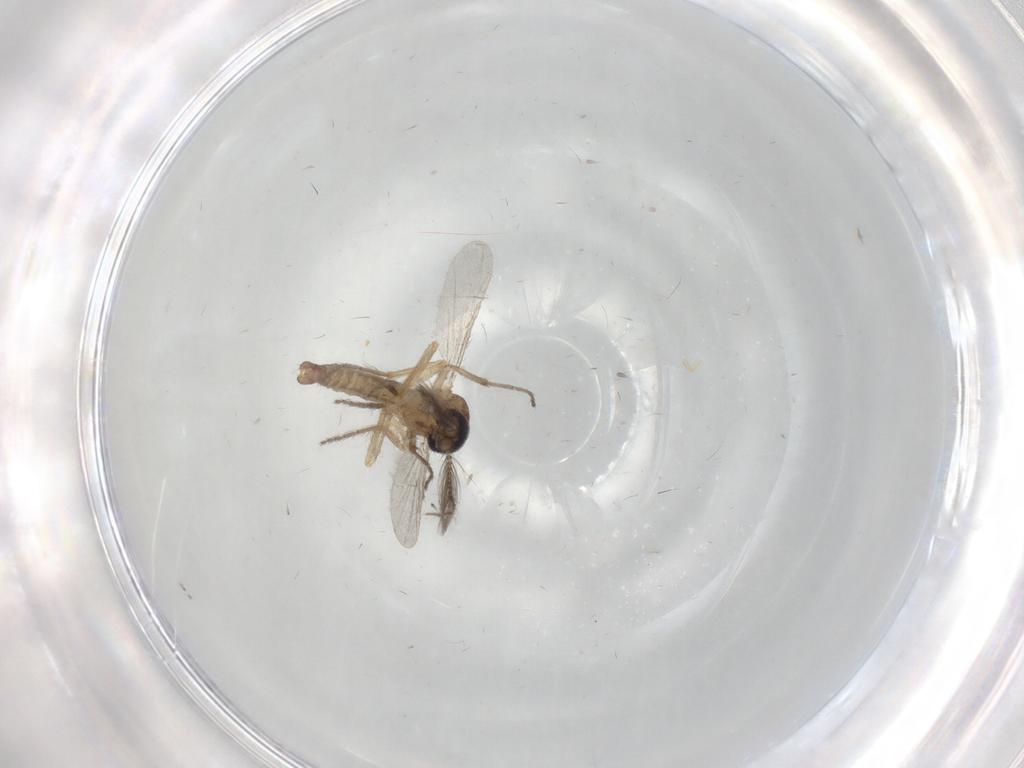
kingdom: Animalia
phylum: Arthropoda
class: Insecta
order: Diptera
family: Ceratopogonidae
